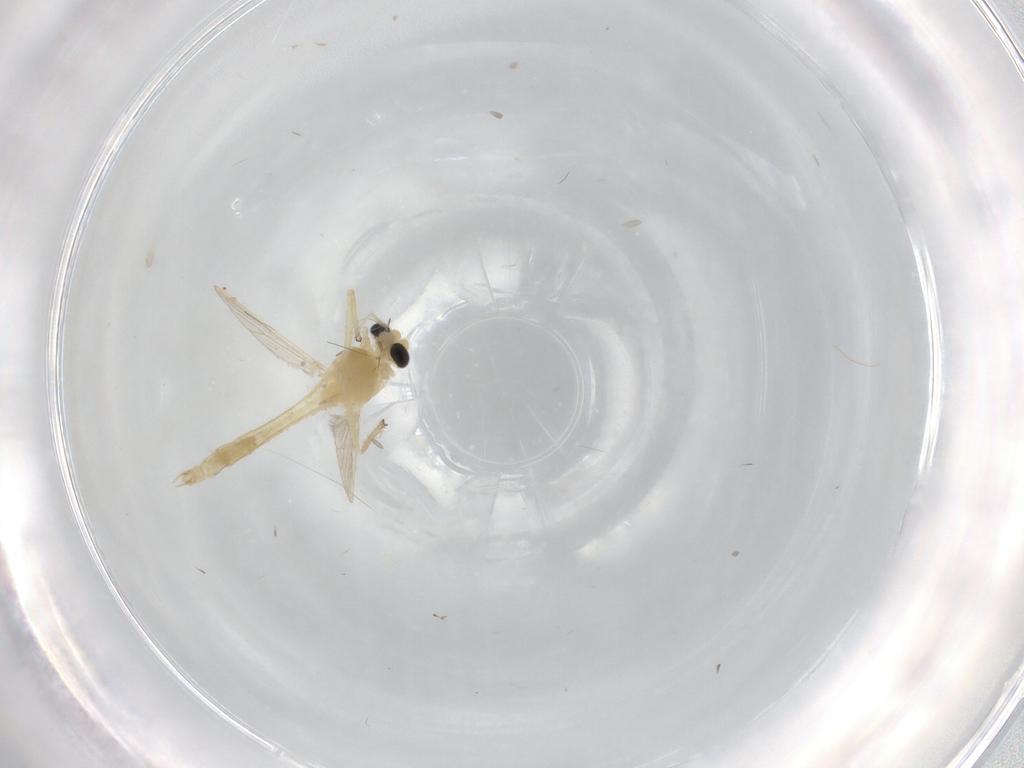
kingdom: Animalia
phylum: Arthropoda
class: Insecta
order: Diptera
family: Chironomidae
